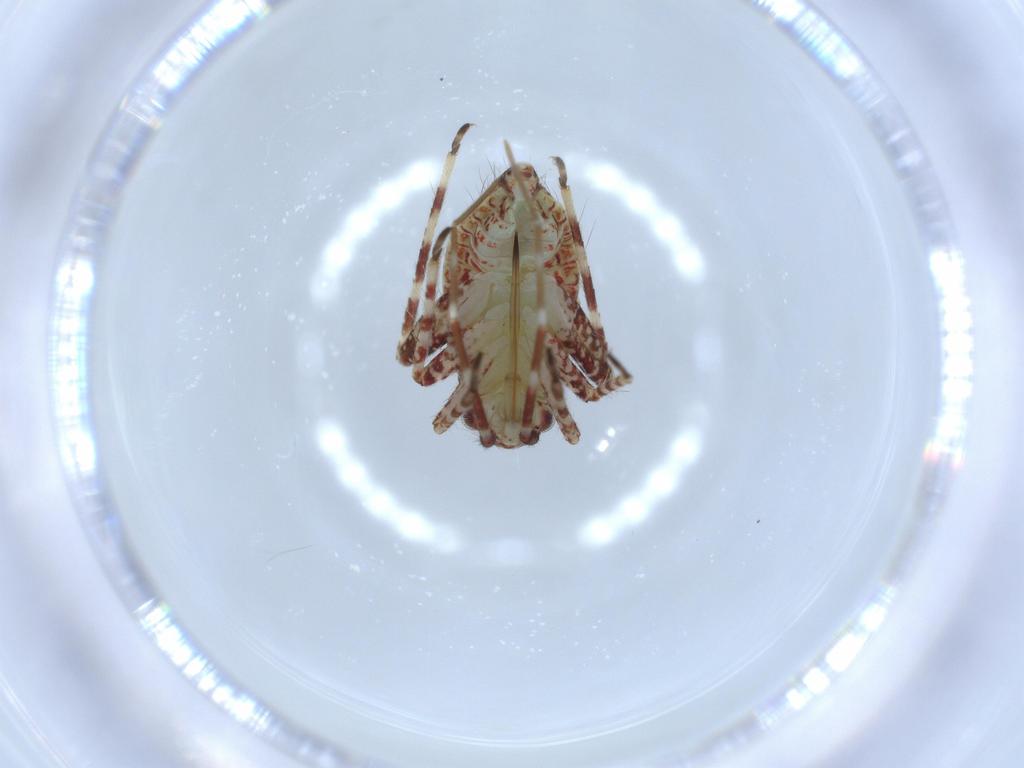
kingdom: Animalia
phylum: Arthropoda
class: Insecta
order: Hemiptera
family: Miridae
